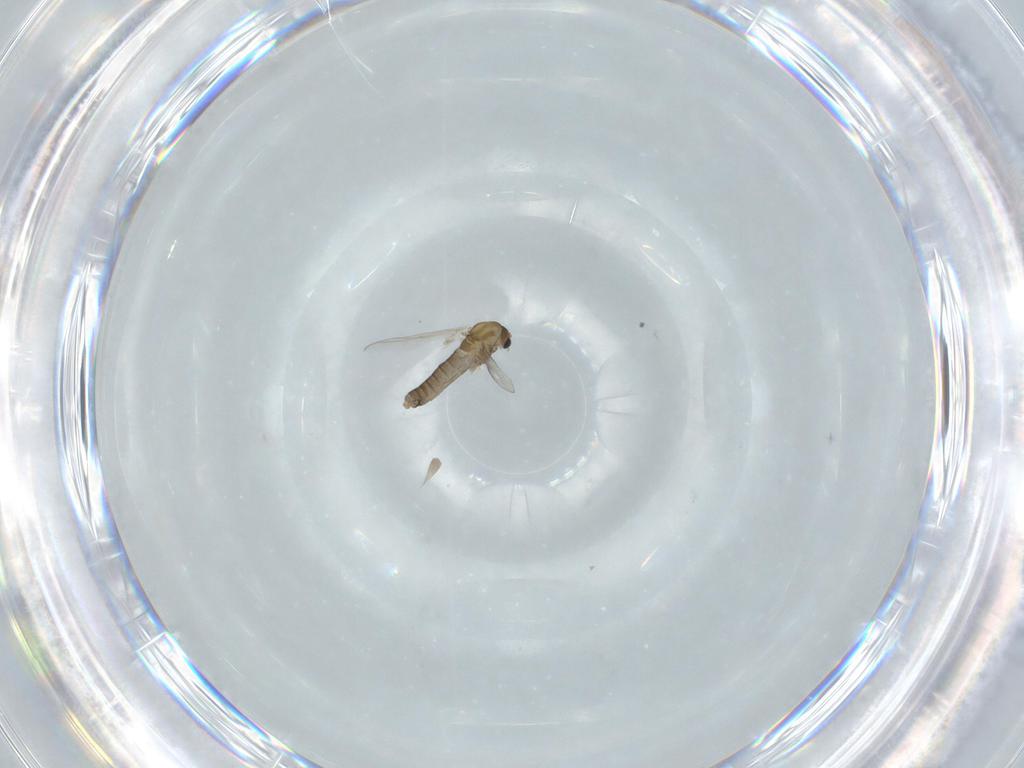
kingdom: Animalia
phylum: Arthropoda
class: Insecta
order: Diptera
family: Chironomidae
